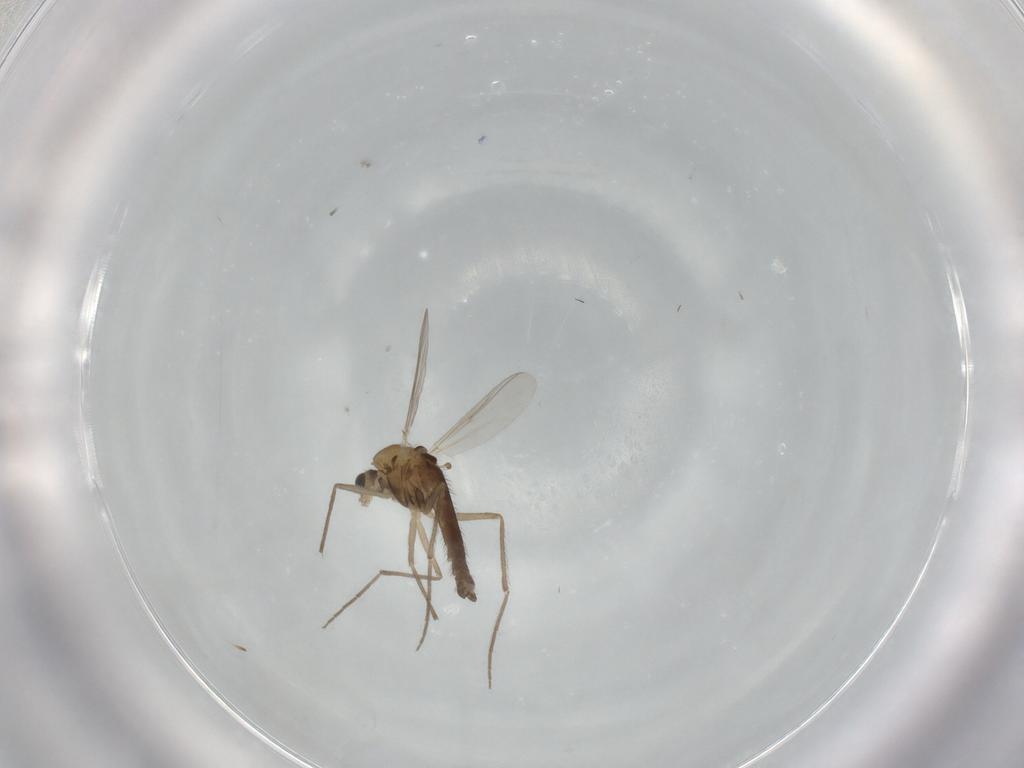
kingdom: Animalia
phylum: Arthropoda
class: Insecta
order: Diptera
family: Chironomidae
